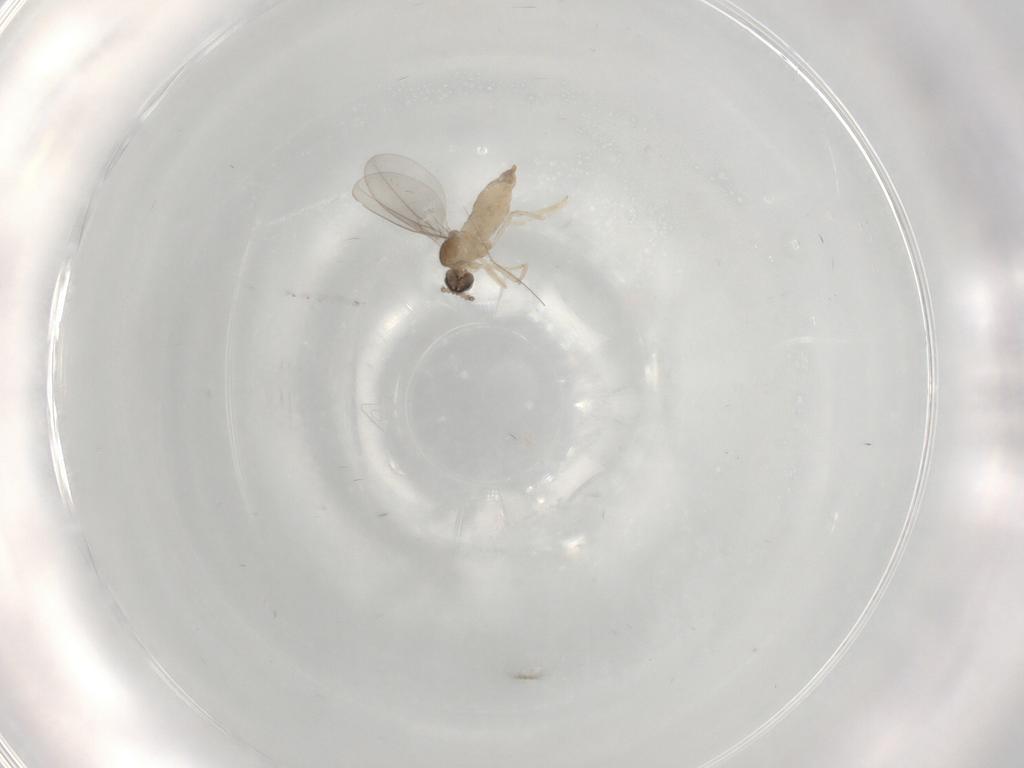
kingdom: Animalia
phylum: Arthropoda
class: Insecta
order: Diptera
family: Cecidomyiidae
